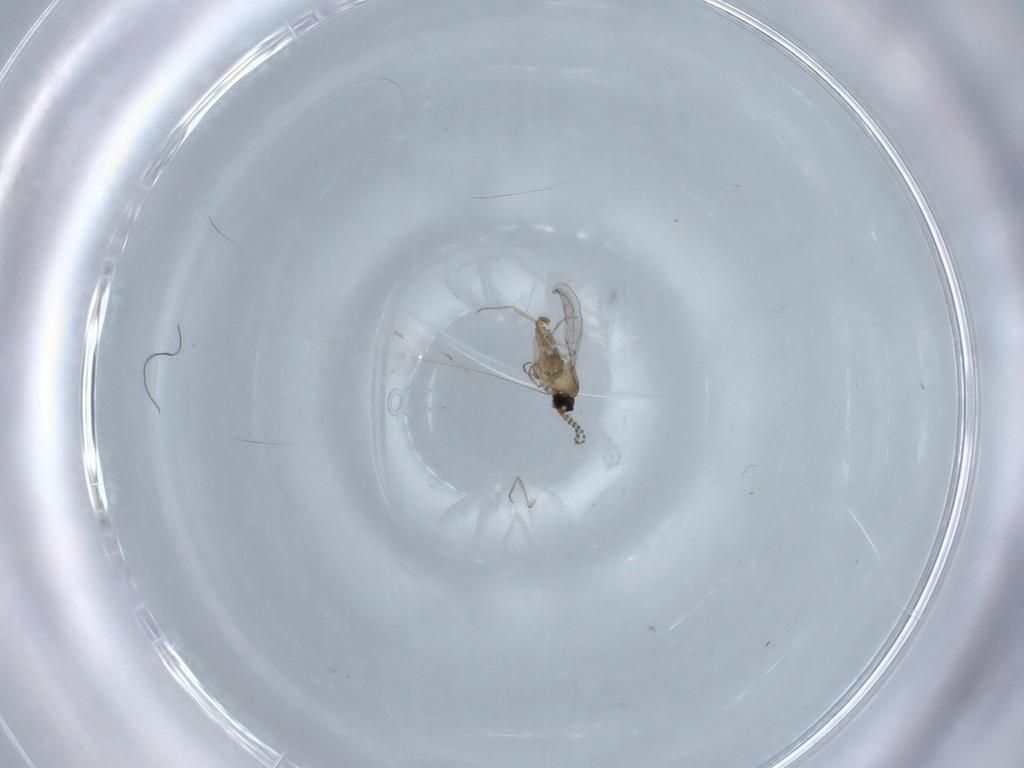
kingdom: Animalia
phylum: Arthropoda
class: Insecta
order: Diptera
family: Cecidomyiidae
